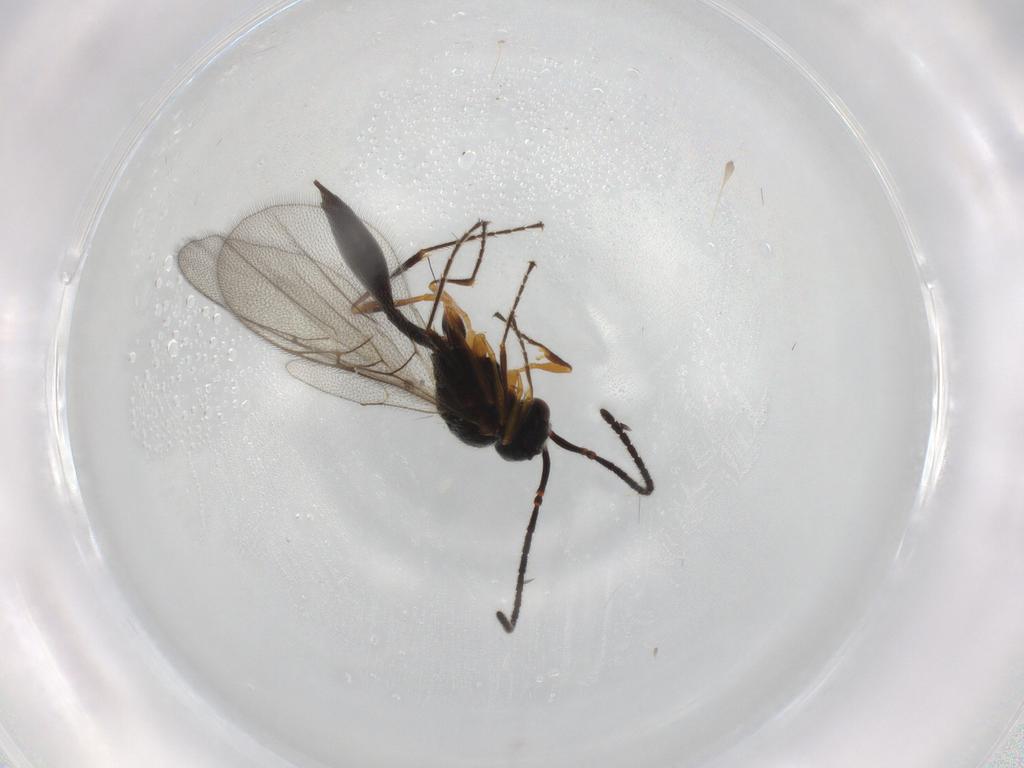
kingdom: Animalia
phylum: Arthropoda
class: Insecta
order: Hymenoptera
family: Diapriidae
